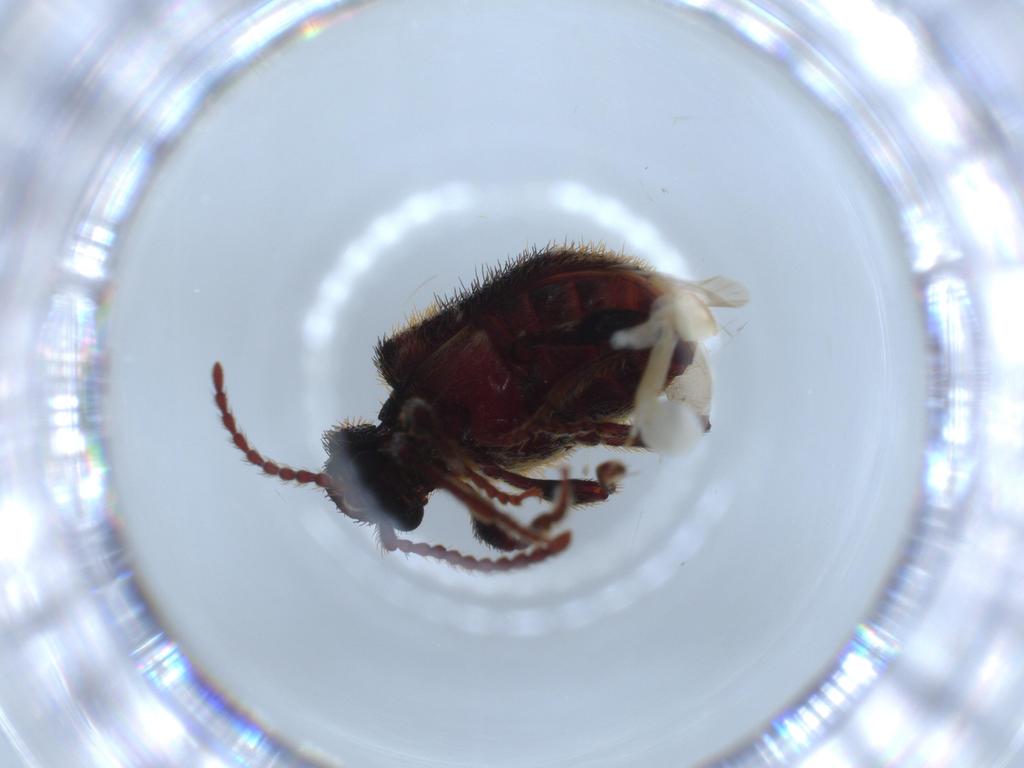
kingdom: Animalia
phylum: Arthropoda
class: Insecta
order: Coleoptera
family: Ptinidae
